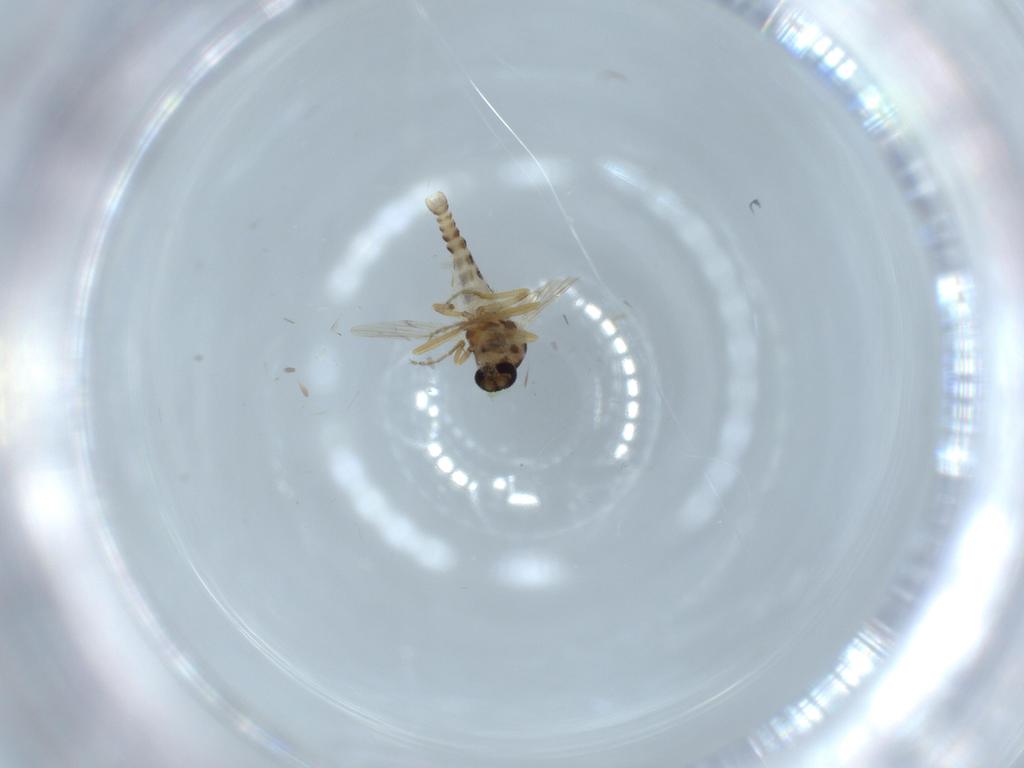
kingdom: Animalia
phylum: Arthropoda
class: Insecta
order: Diptera
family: Ceratopogonidae
